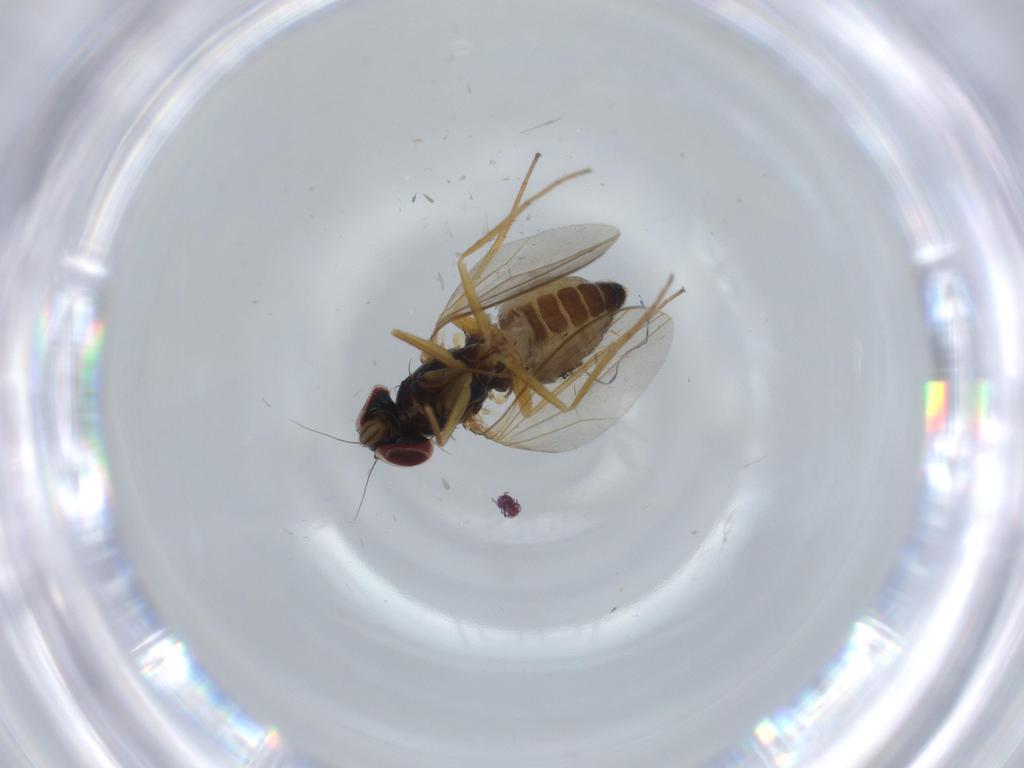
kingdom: Animalia
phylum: Arthropoda
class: Insecta
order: Diptera
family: Dolichopodidae
